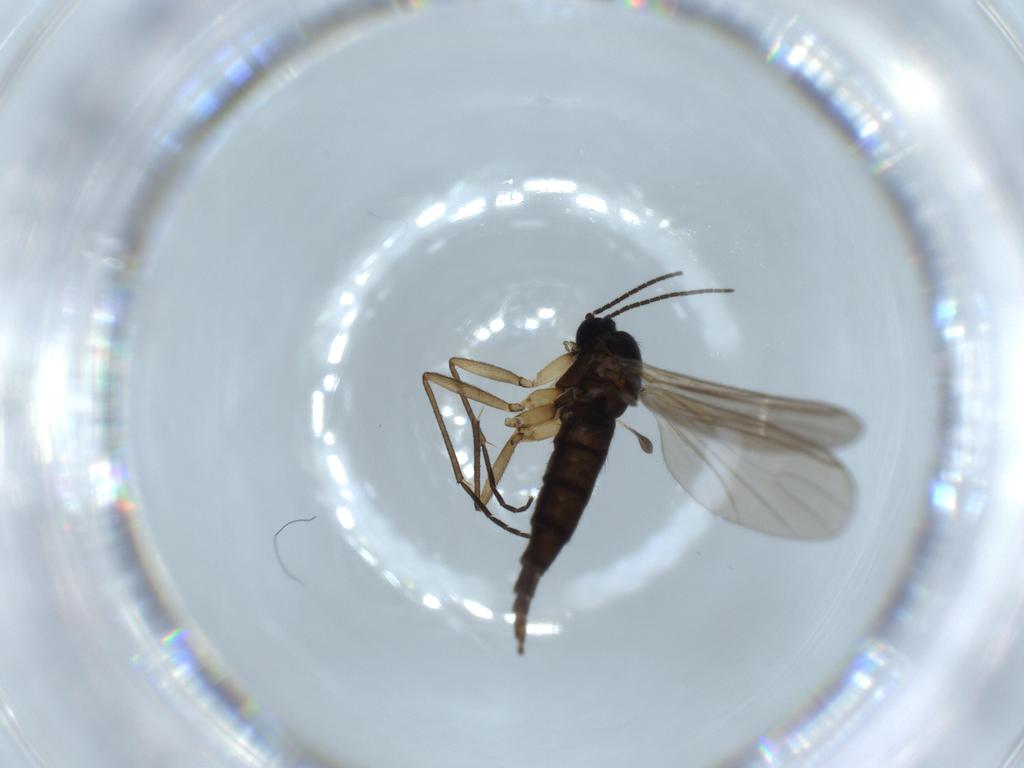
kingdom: Animalia
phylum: Arthropoda
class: Insecta
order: Diptera
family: Sciaridae
